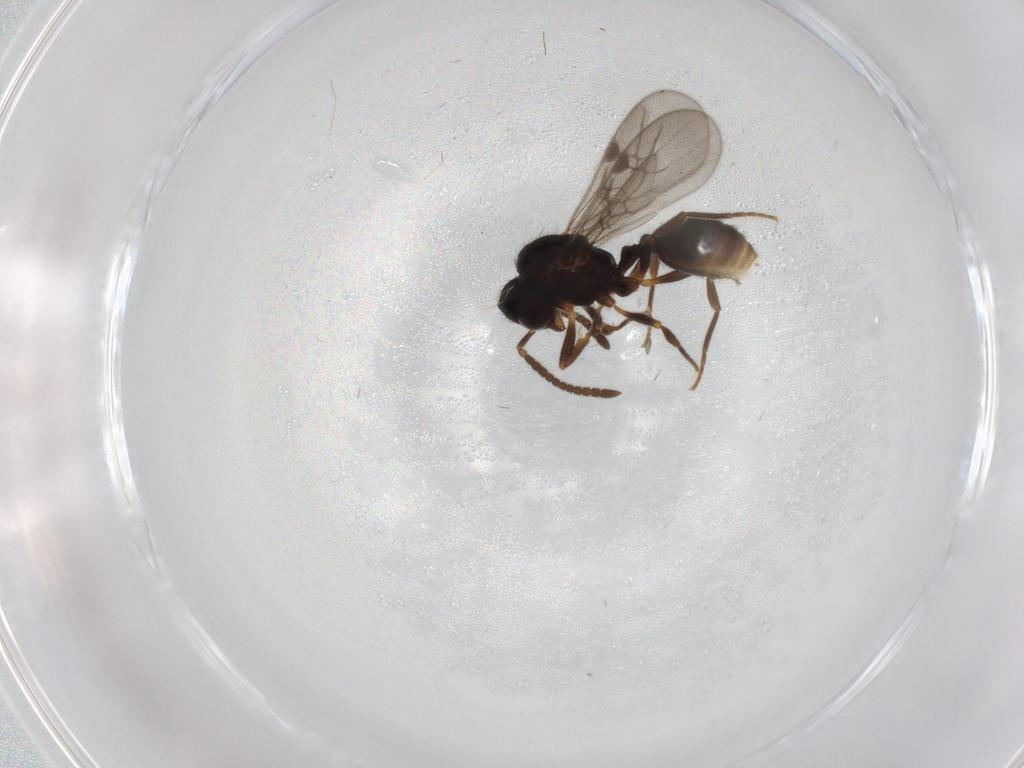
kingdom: Animalia
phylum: Arthropoda
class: Insecta
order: Hymenoptera
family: Formicidae
